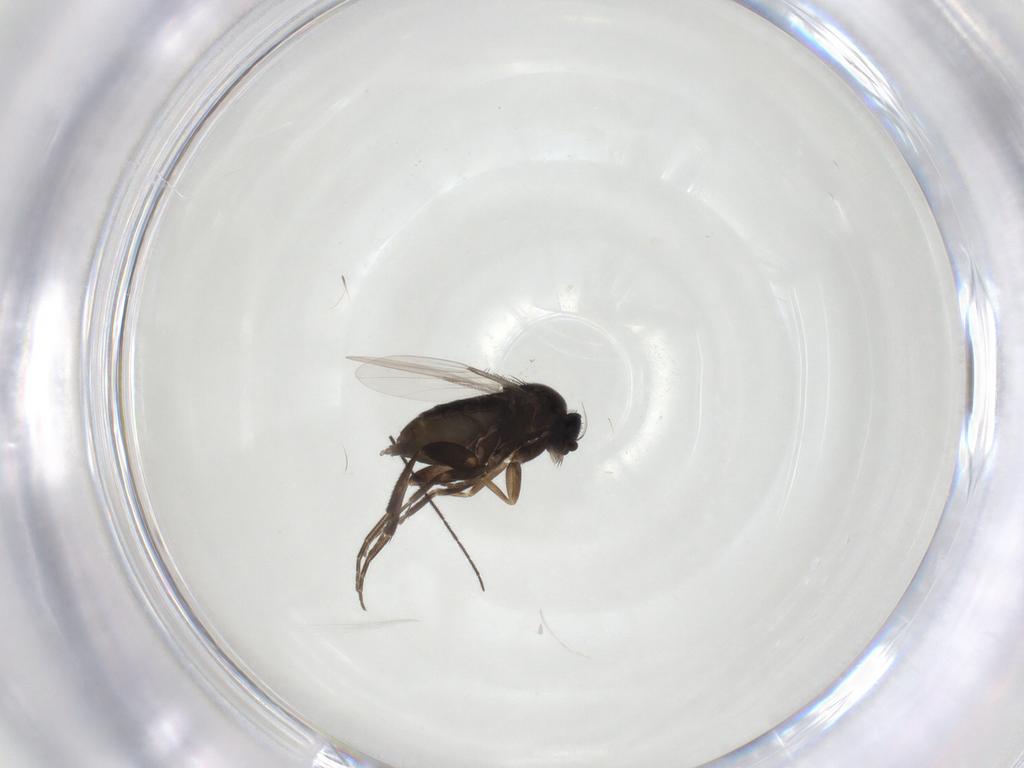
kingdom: Animalia
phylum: Arthropoda
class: Insecta
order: Diptera
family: Phoridae
